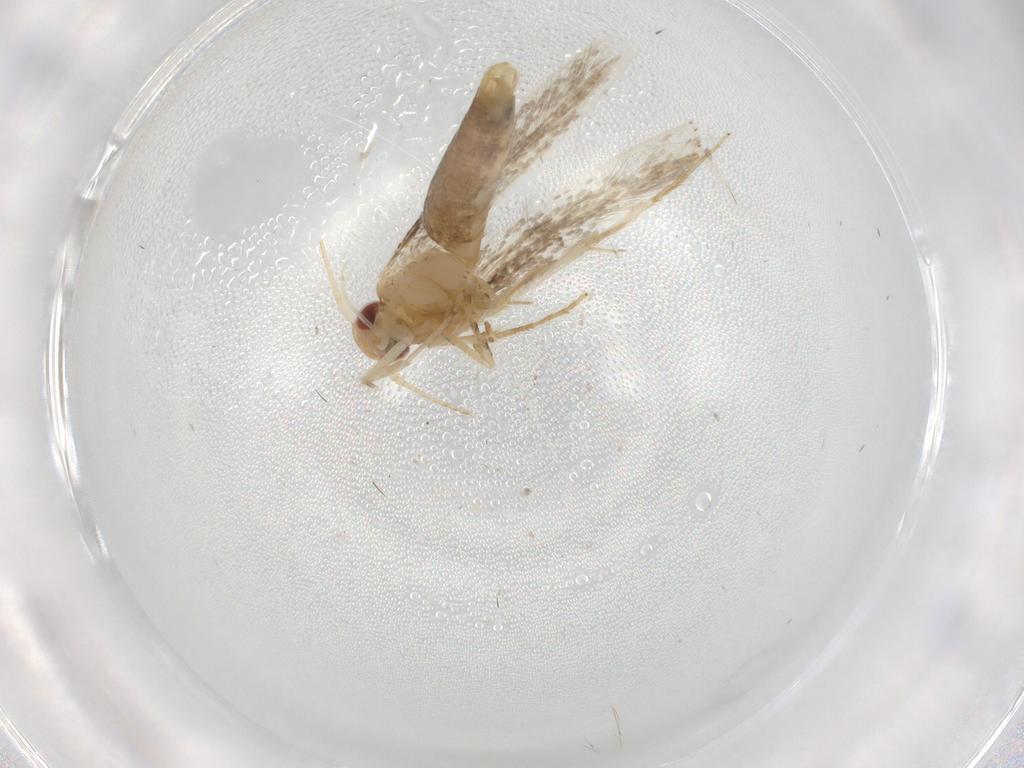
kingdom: Animalia
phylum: Arthropoda
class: Insecta
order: Lepidoptera
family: Cosmopterigidae
